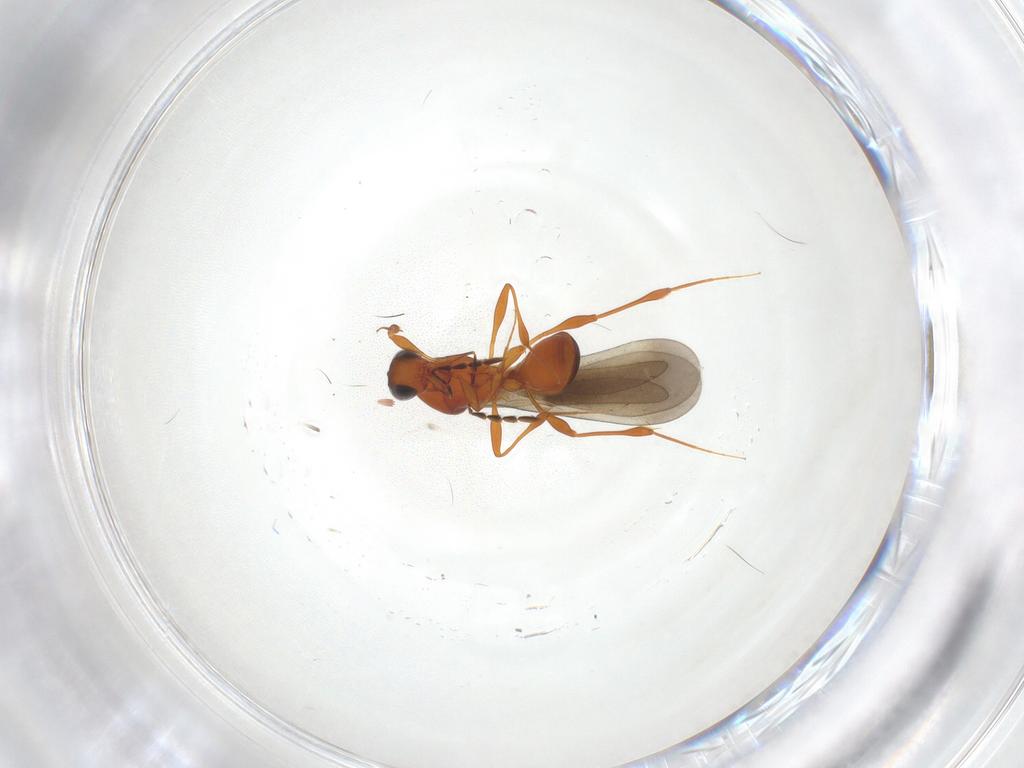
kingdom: Animalia
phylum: Arthropoda
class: Insecta
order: Hymenoptera
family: Platygastridae
